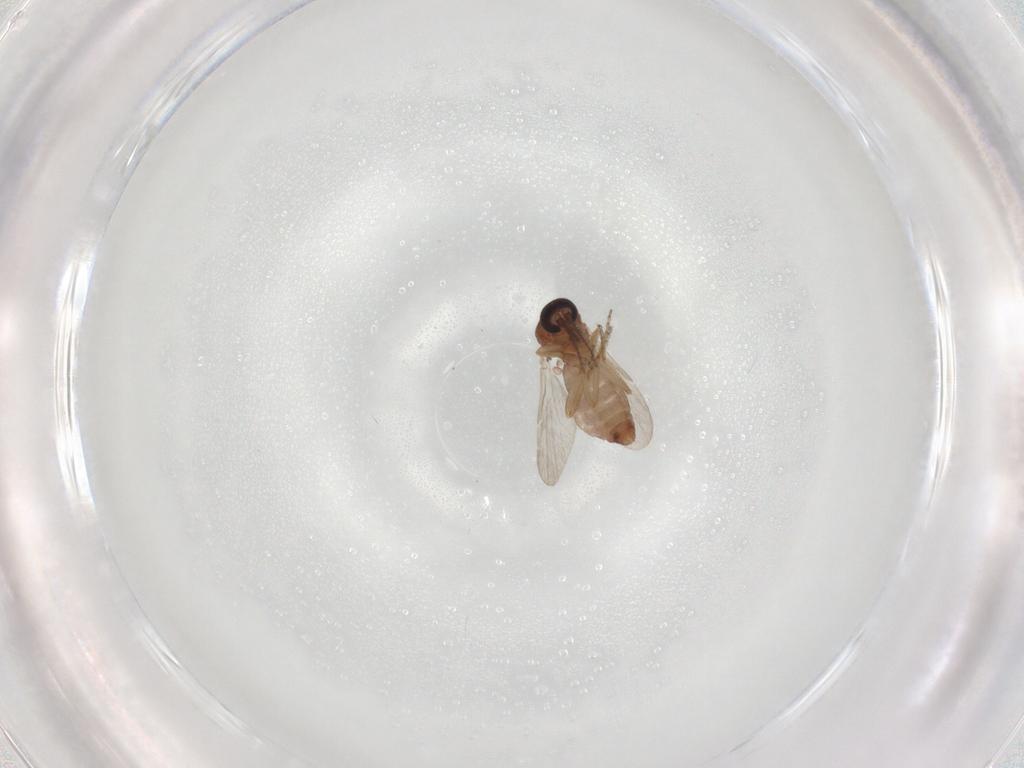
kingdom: Animalia
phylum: Arthropoda
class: Insecta
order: Diptera
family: Ceratopogonidae
